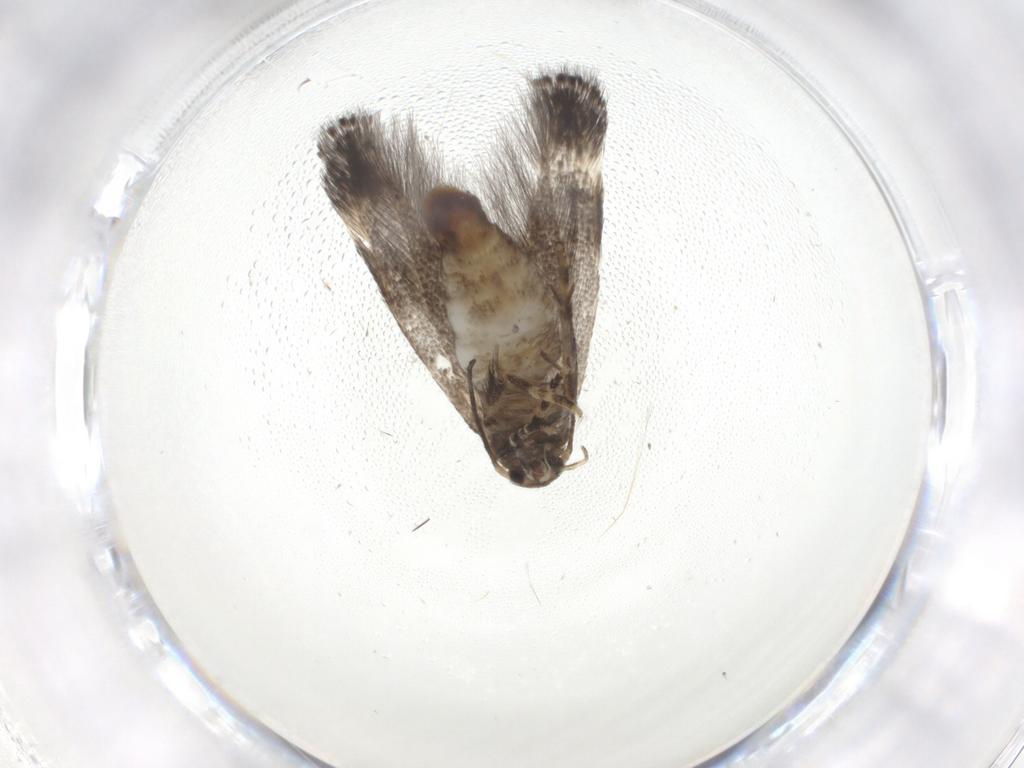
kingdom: Animalia
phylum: Arthropoda
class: Insecta
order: Lepidoptera
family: Elachistidae
